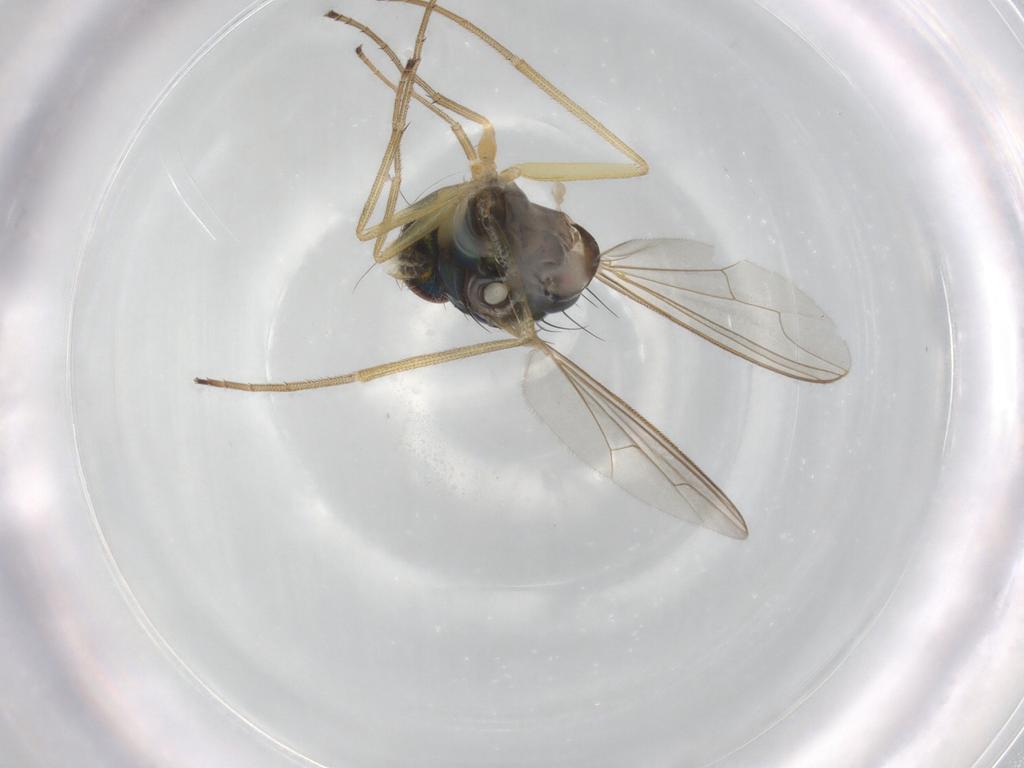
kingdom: Animalia
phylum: Arthropoda
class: Insecta
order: Diptera
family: Dolichopodidae
